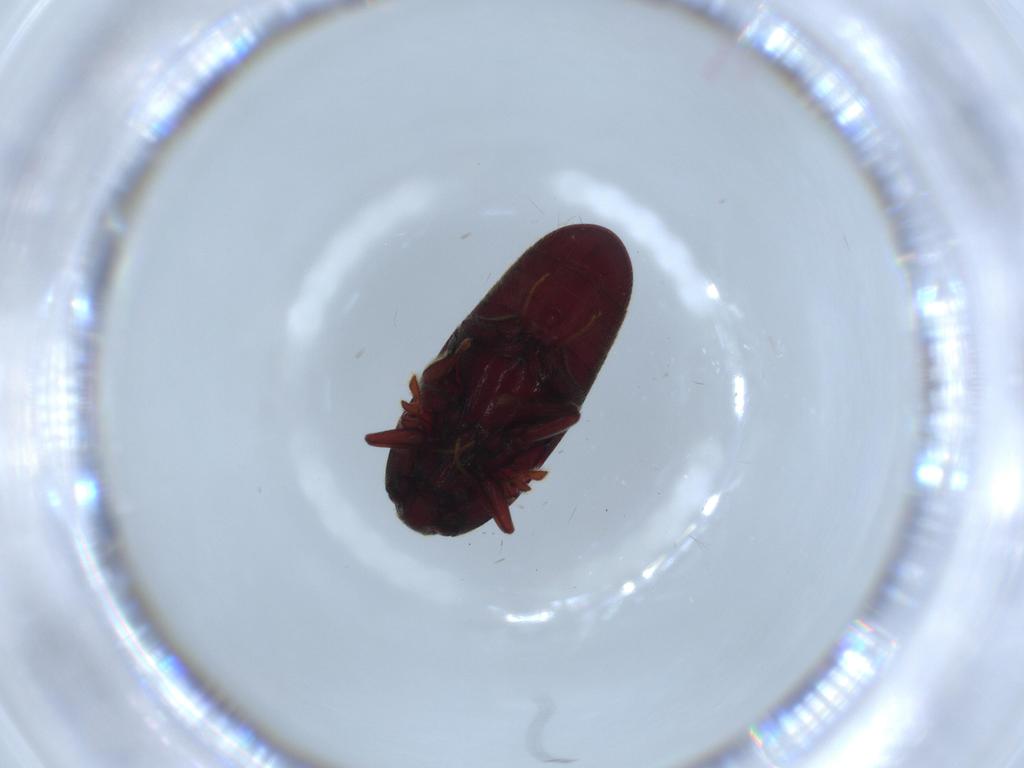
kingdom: Animalia
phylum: Arthropoda
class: Insecta
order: Coleoptera
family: Throscidae
